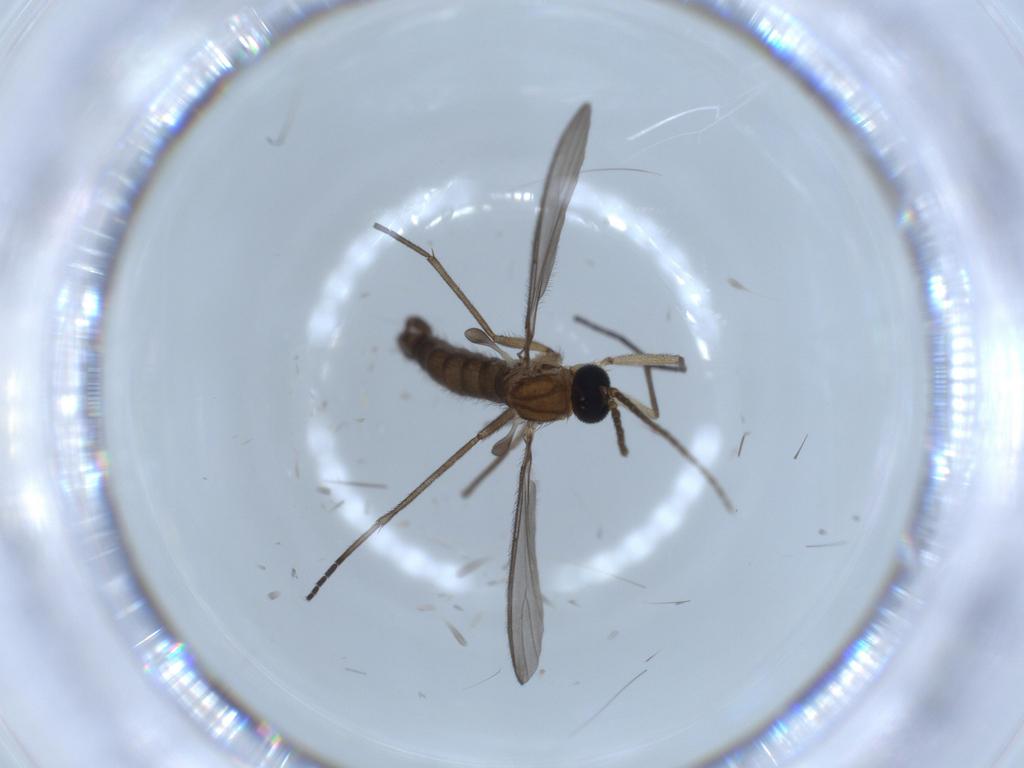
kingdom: Animalia
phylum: Arthropoda
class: Insecta
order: Diptera
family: Sciaridae
